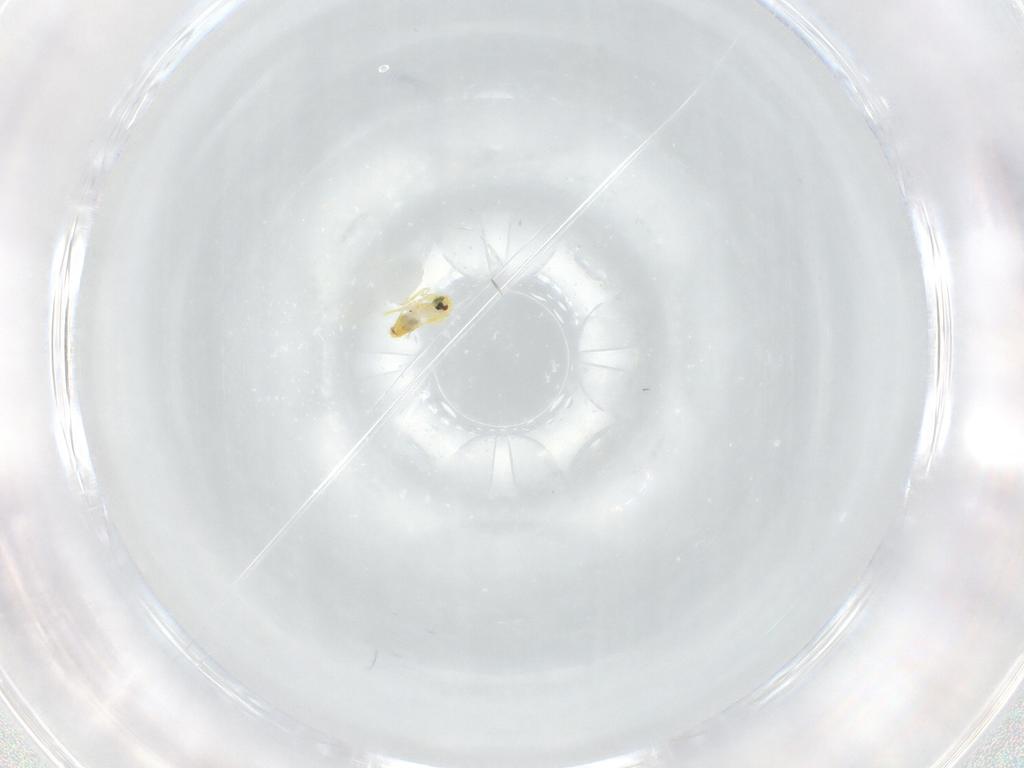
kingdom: Animalia
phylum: Arthropoda
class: Insecta
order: Hemiptera
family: Aleyrodidae
